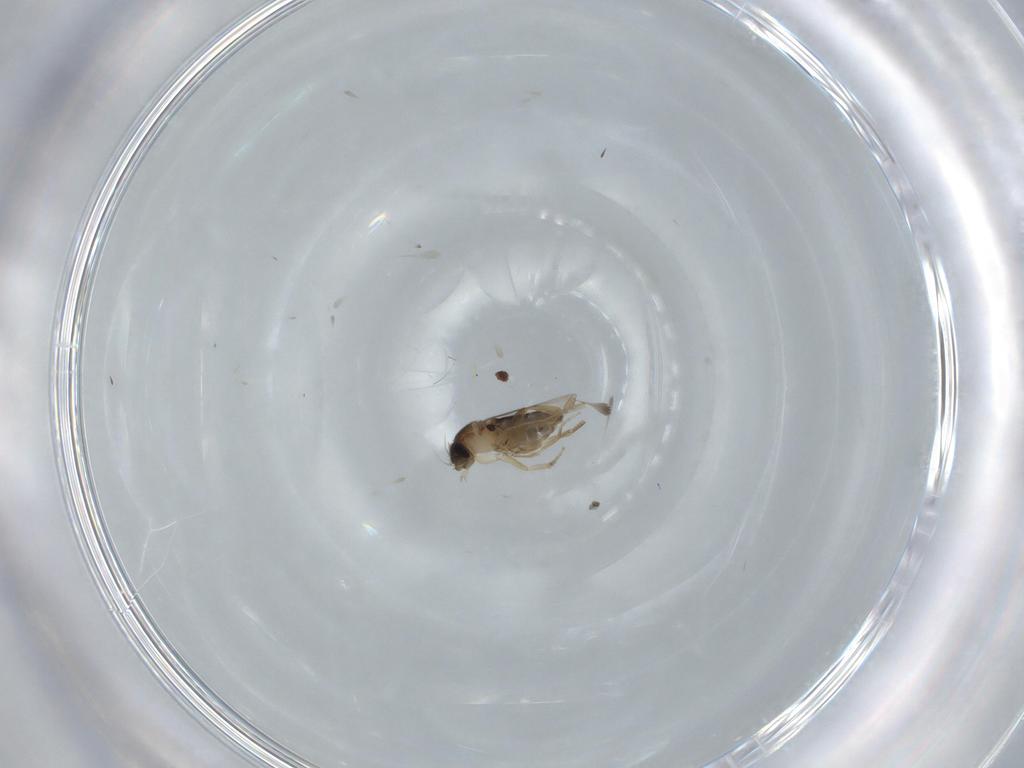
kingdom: Animalia
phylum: Arthropoda
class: Insecta
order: Diptera
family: Phoridae
